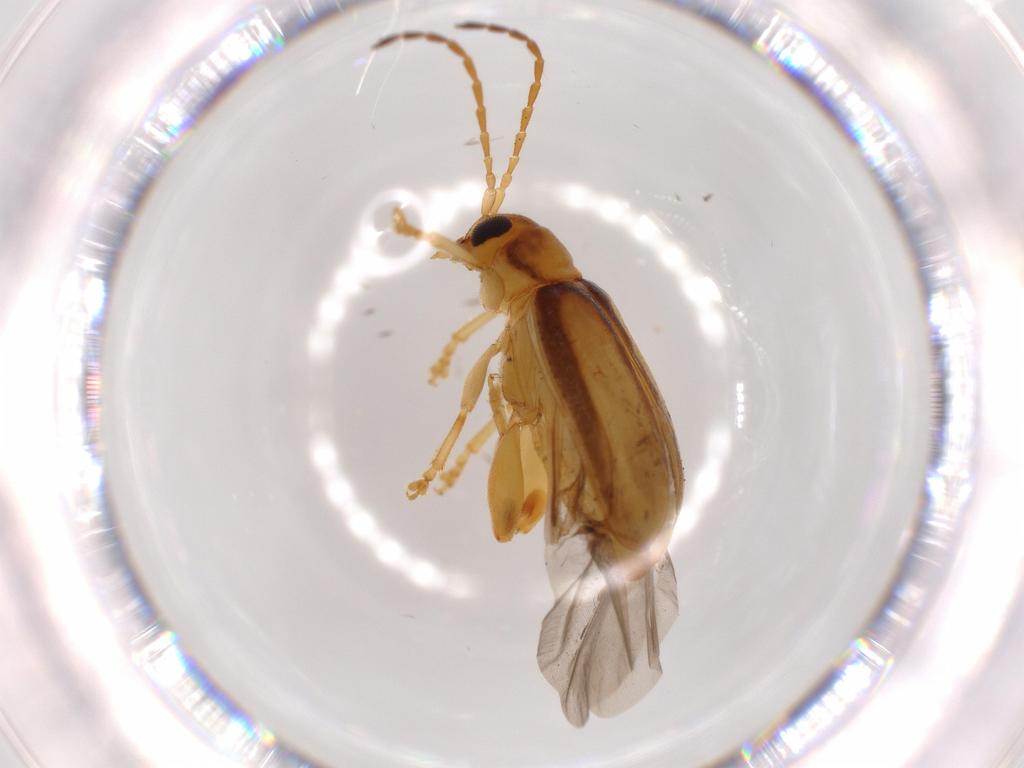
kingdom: Animalia
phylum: Arthropoda
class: Insecta
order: Coleoptera
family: Chrysomelidae
